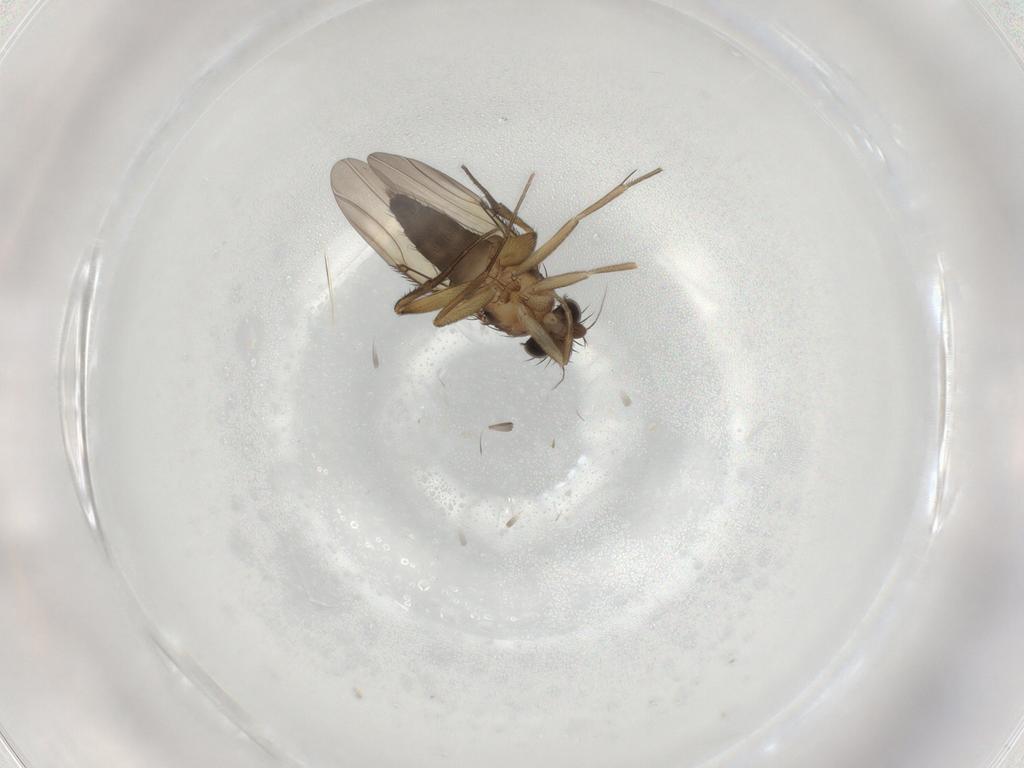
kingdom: Animalia
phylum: Arthropoda
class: Insecta
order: Diptera
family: Phoridae
